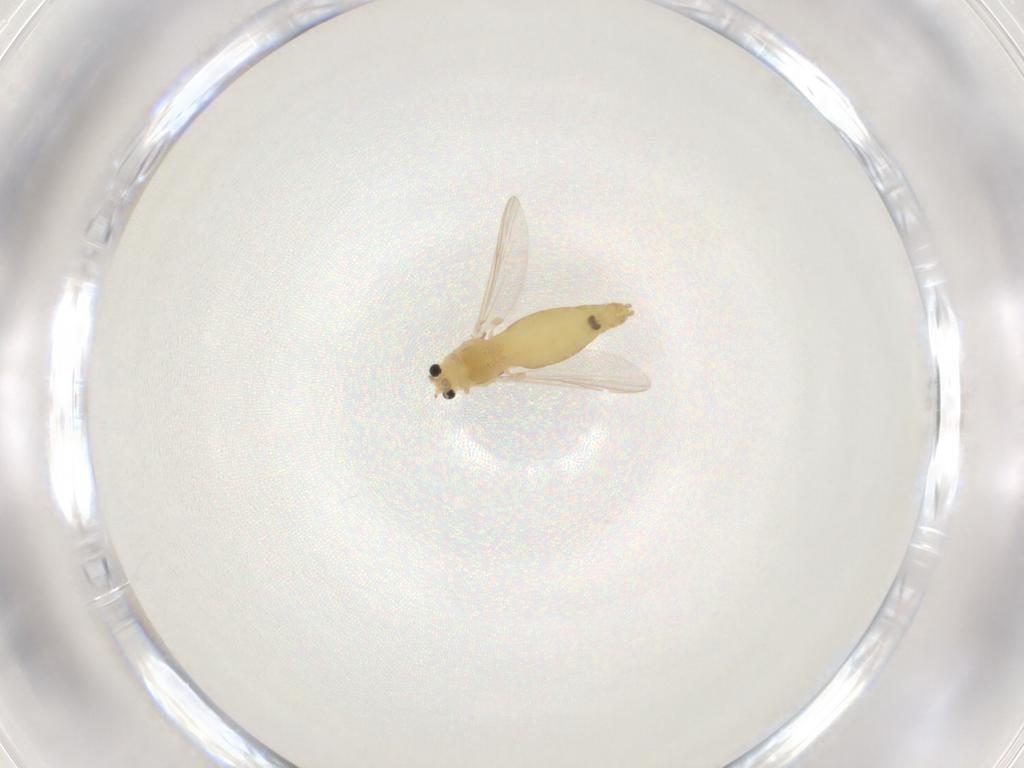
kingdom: Animalia
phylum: Arthropoda
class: Insecta
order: Diptera
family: Chironomidae
